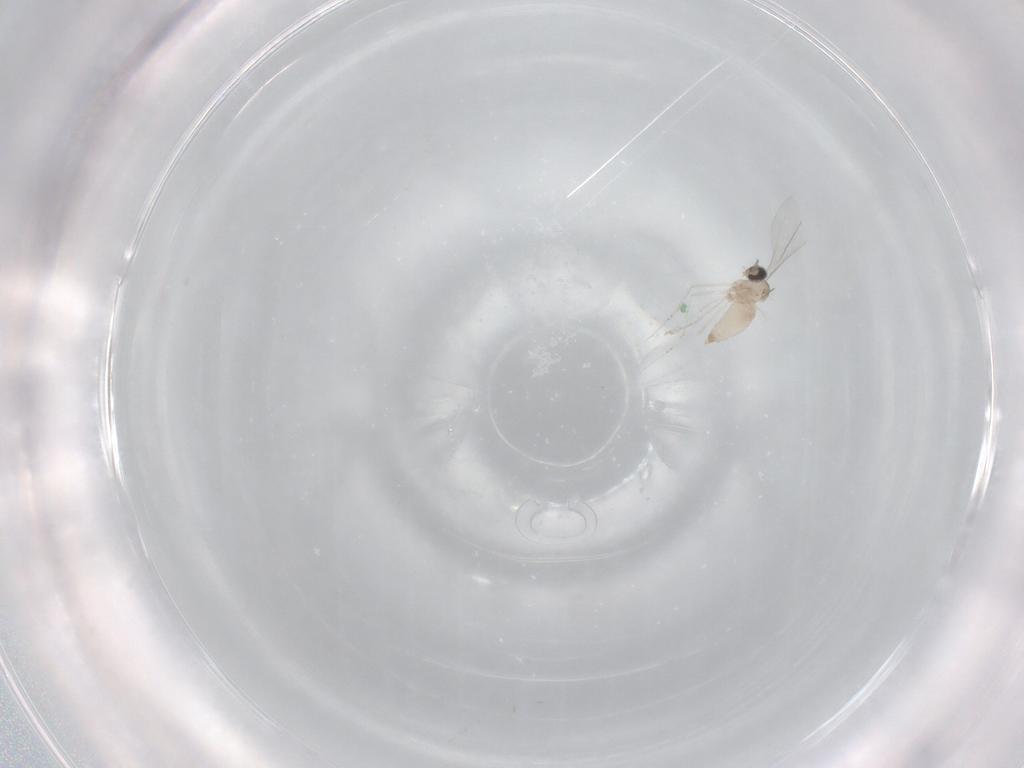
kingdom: Animalia
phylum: Arthropoda
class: Insecta
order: Diptera
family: Cecidomyiidae
